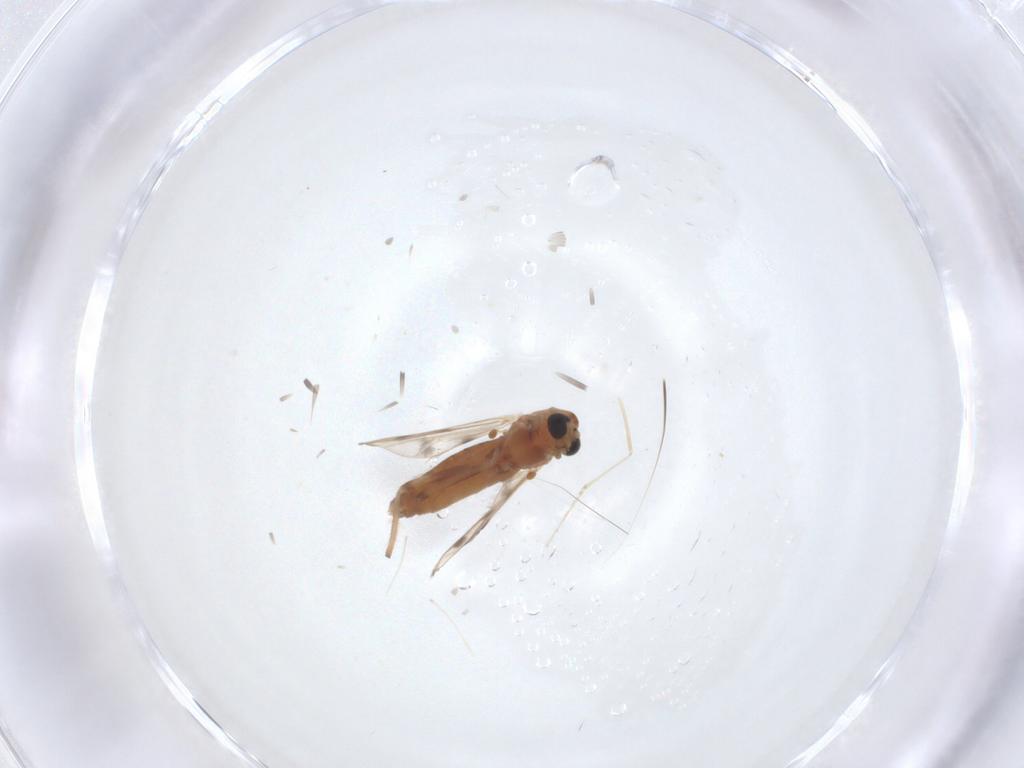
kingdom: Animalia
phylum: Arthropoda
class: Insecta
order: Diptera
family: Chironomidae
